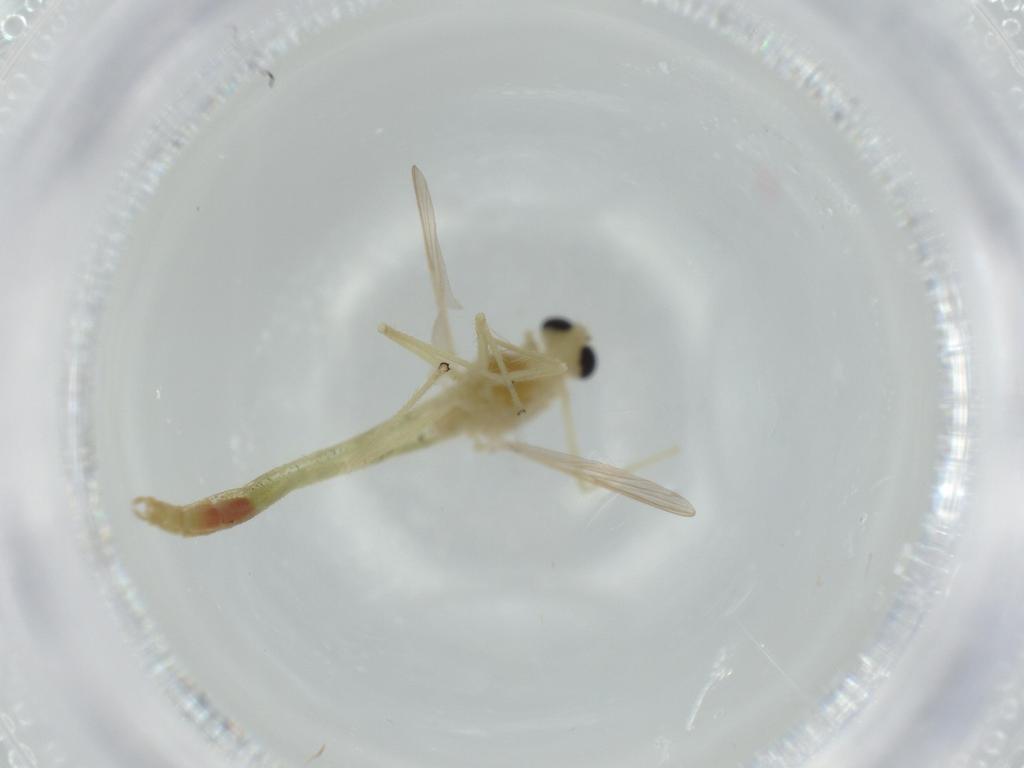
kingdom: Animalia
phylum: Arthropoda
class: Insecta
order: Diptera
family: Chironomidae
